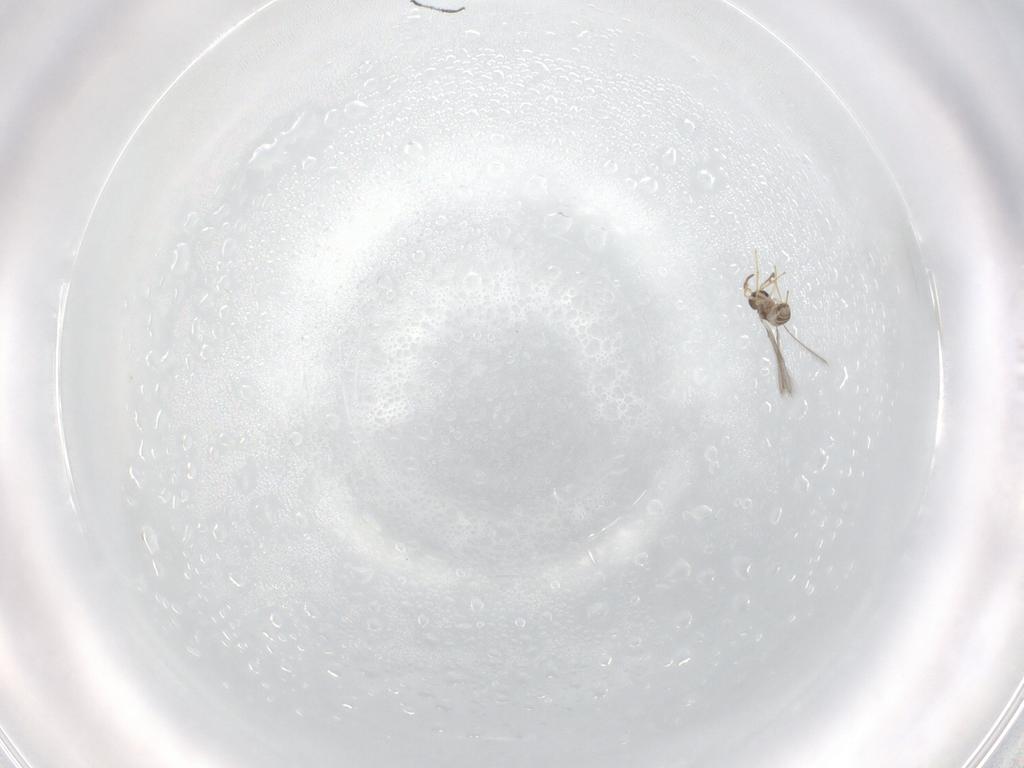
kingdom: Animalia
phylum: Arthropoda
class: Insecta
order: Hymenoptera
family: Mymaridae
